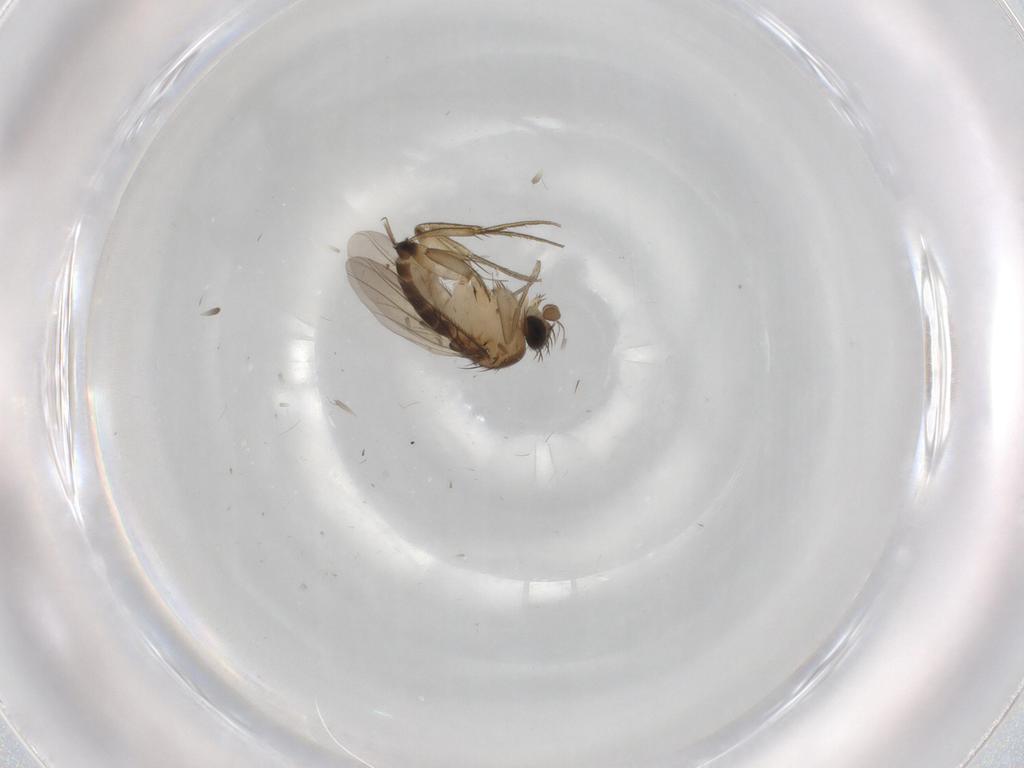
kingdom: Animalia
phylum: Arthropoda
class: Insecta
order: Diptera
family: Phoridae
